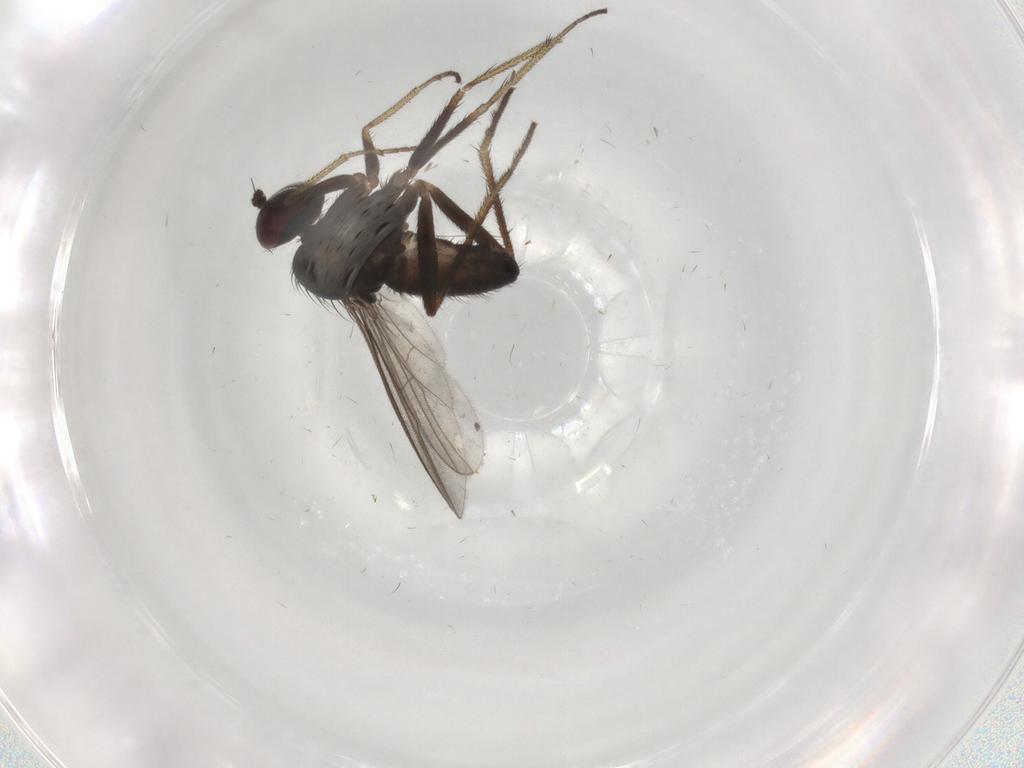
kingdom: Animalia
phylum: Arthropoda
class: Insecta
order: Diptera
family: Dolichopodidae
